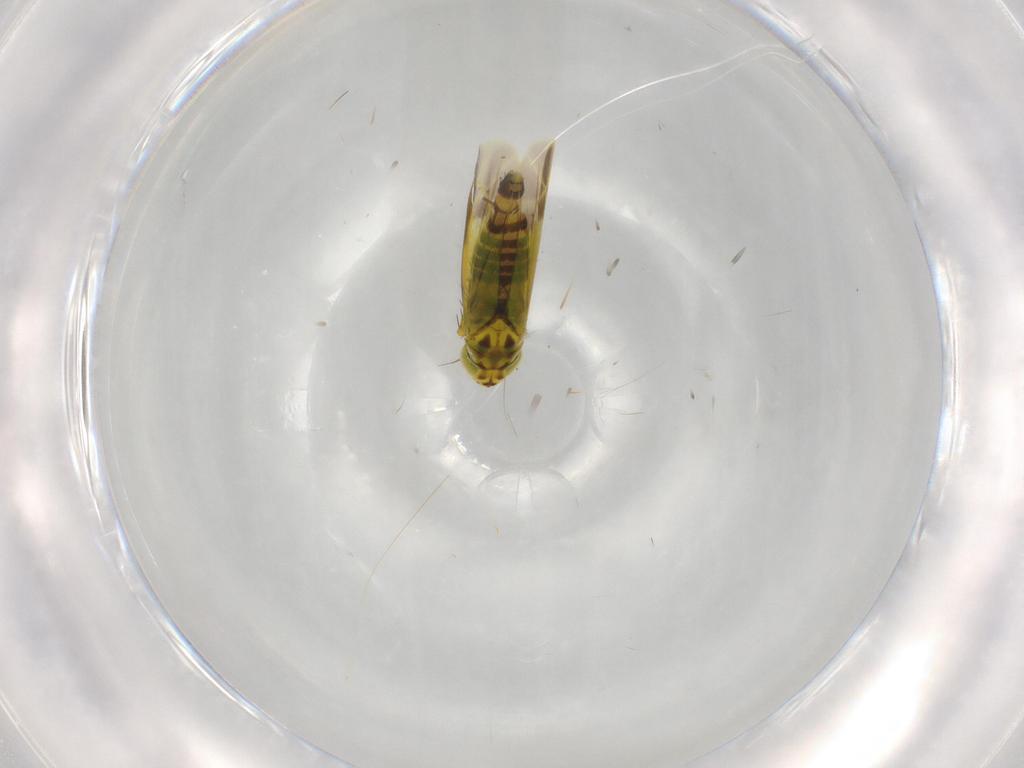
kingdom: Animalia
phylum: Arthropoda
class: Insecta
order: Hemiptera
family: Cicadellidae
